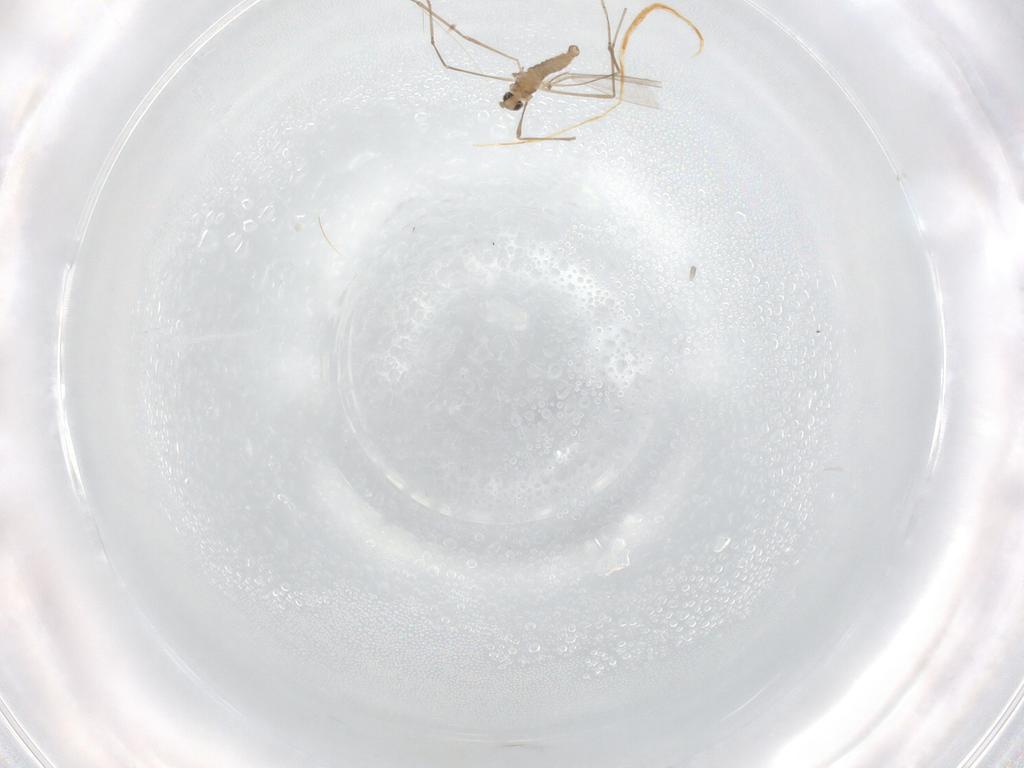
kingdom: Animalia
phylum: Arthropoda
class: Insecta
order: Diptera
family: Cecidomyiidae
